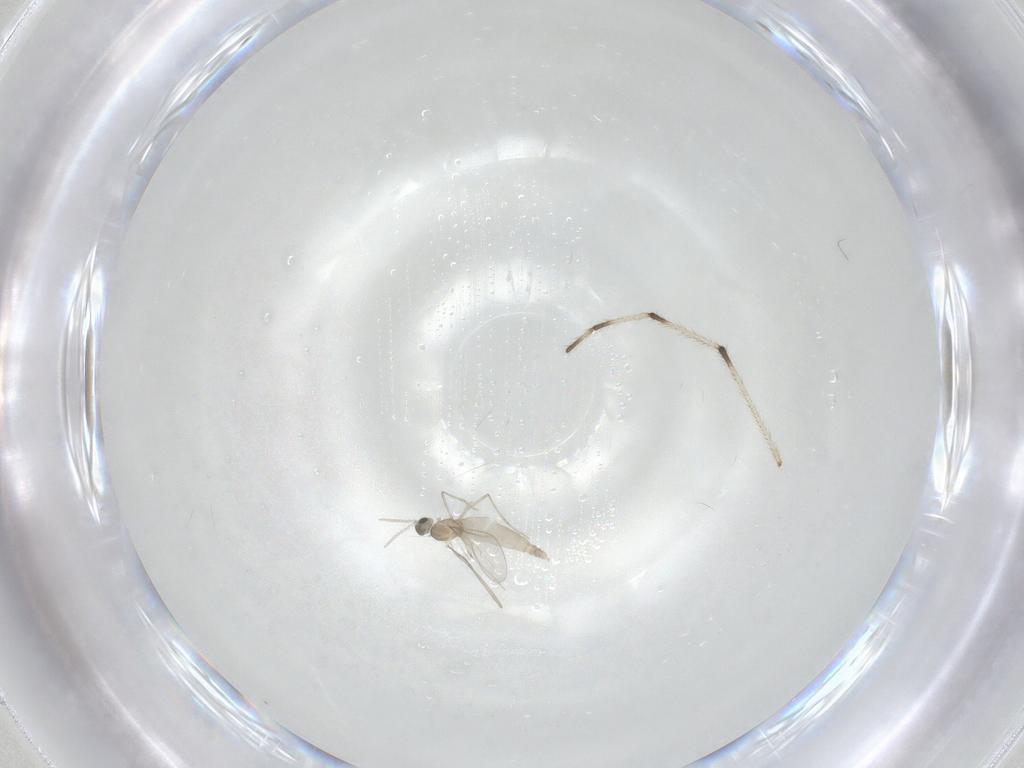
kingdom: Animalia
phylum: Arthropoda
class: Insecta
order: Diptera
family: Cecidomyiidae
